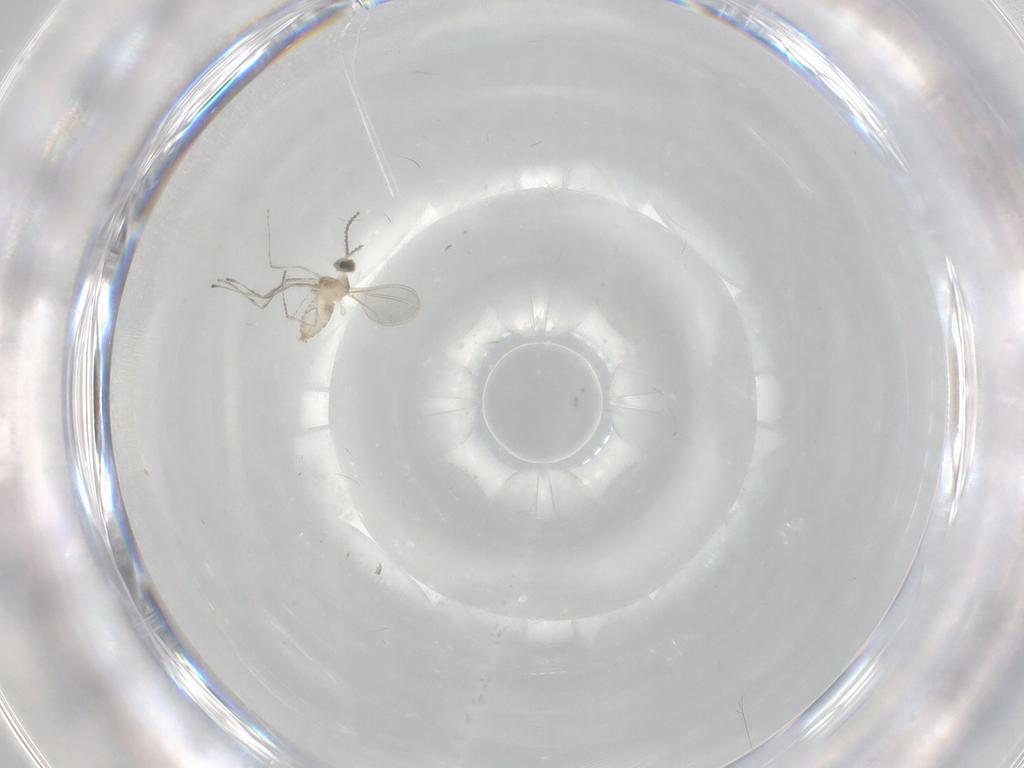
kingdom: Animalia
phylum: Arthropoda
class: Insecta
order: Diptera
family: Cecidomyiidae
